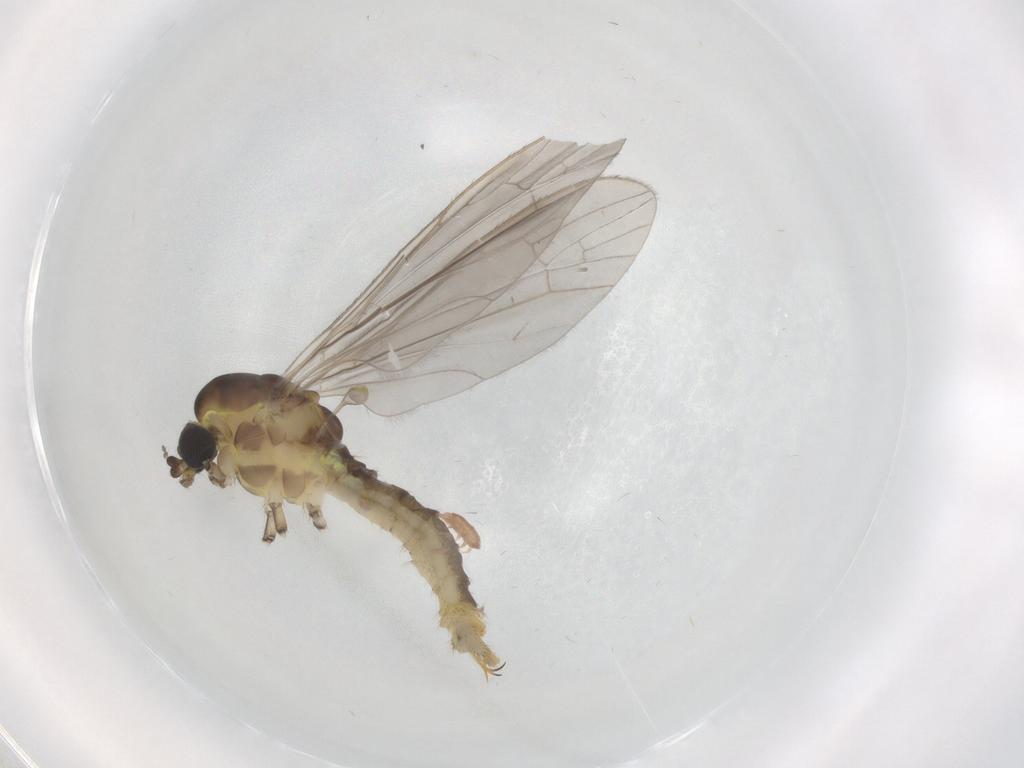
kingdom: Animalia
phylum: Arthropoda
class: Insecta
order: Diptera
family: Limoniidae
